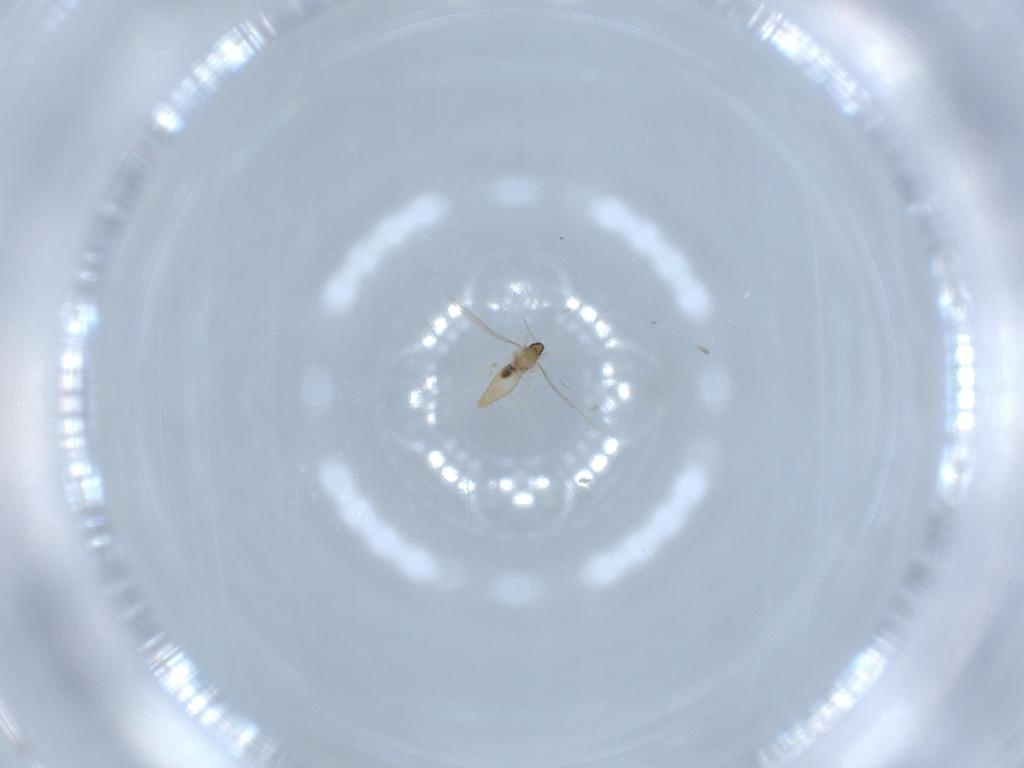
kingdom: Animalia
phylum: Arthropoda
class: Insecta
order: Diptera
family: Cecidomyiidae
